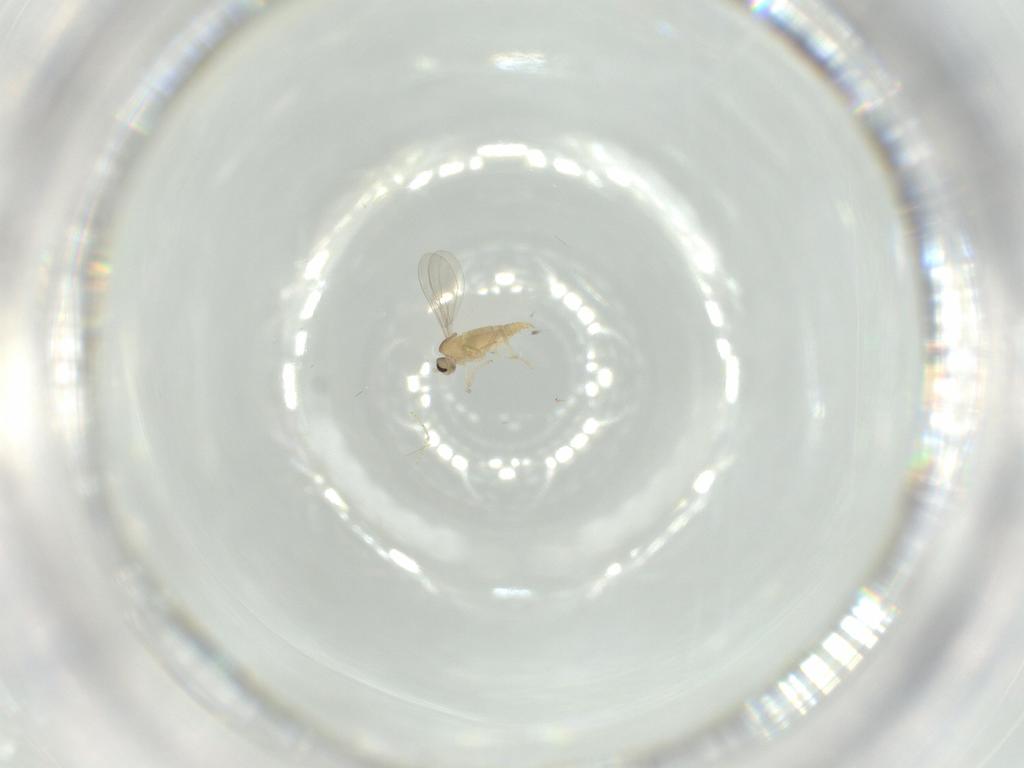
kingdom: Animalia
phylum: Arthropoda
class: Insecta
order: Diptera
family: Cecidomyiidae
